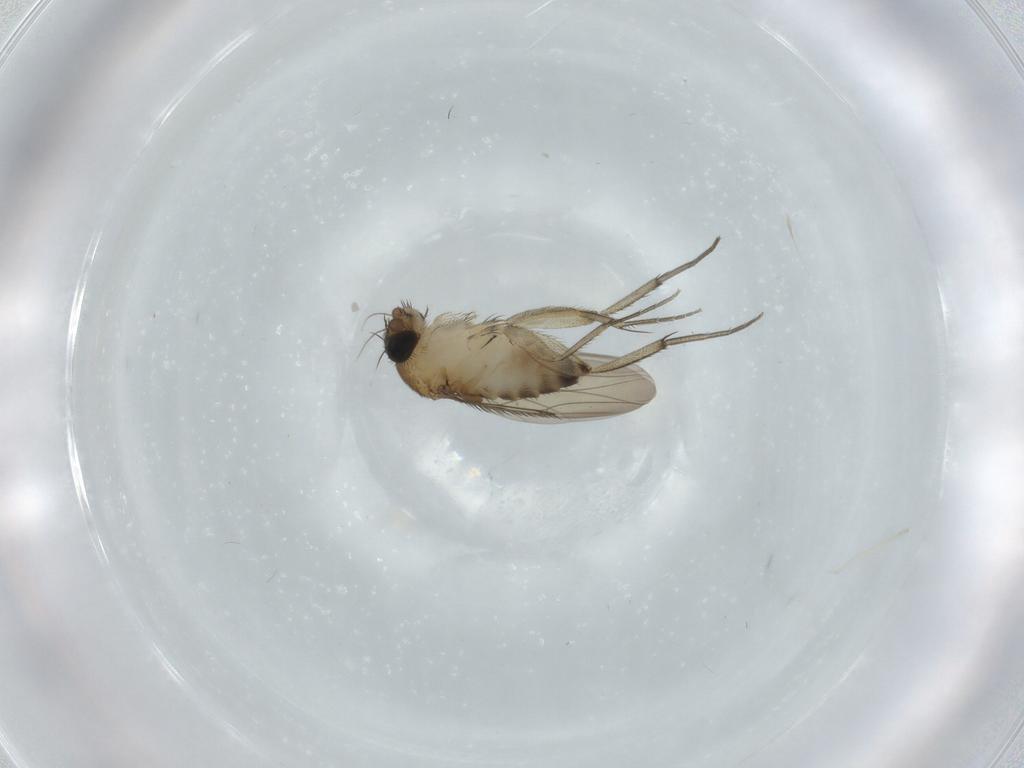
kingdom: Animalia
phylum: Arthropoda
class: Insecta
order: Diptera
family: Phoridae
